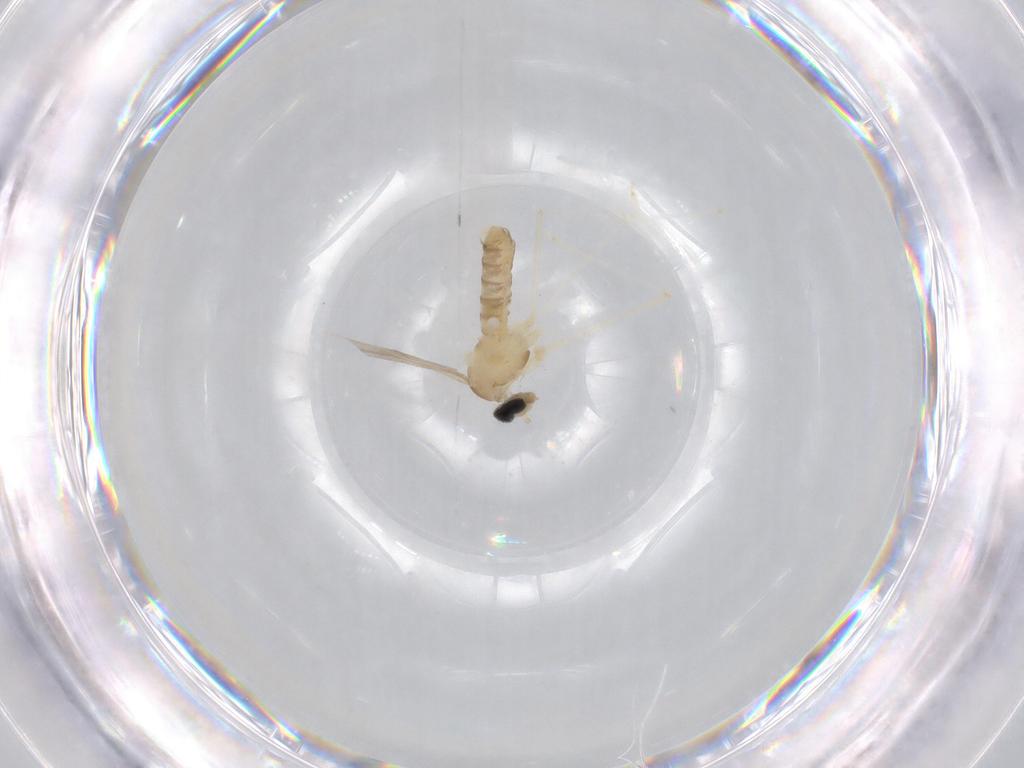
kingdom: Animalia
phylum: Arthropoda
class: Insecta
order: Diptera
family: Cecidomyiidae
